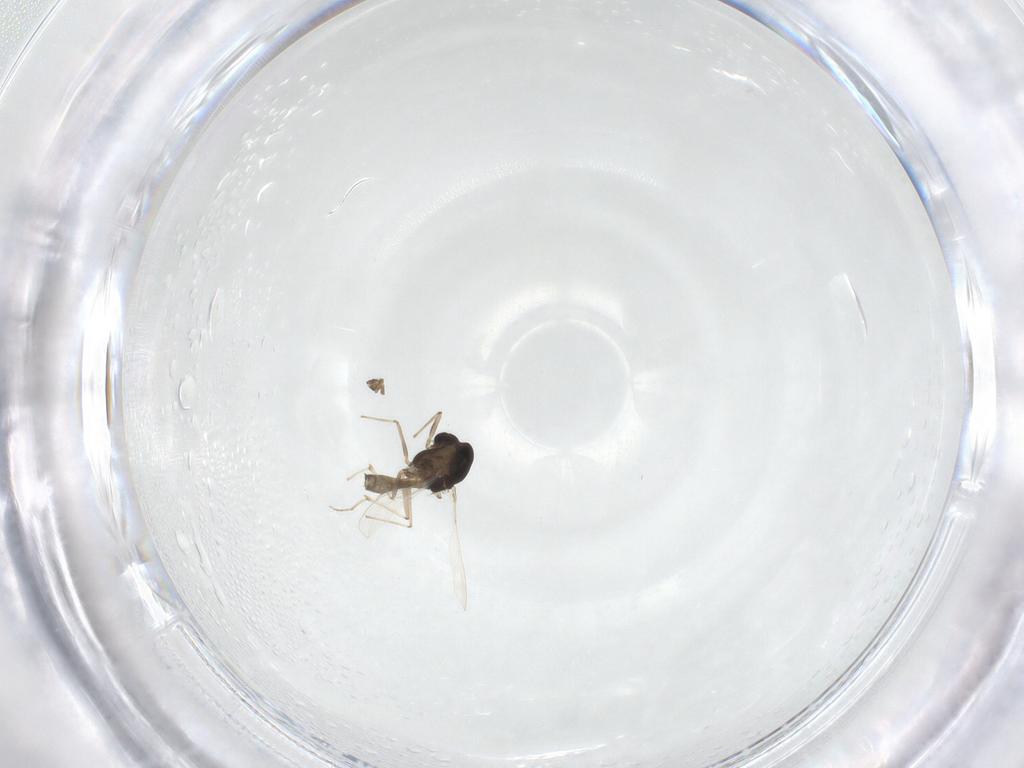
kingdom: Animalia
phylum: Arthropoda
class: Insecta
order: Diptera
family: Chironomidae
